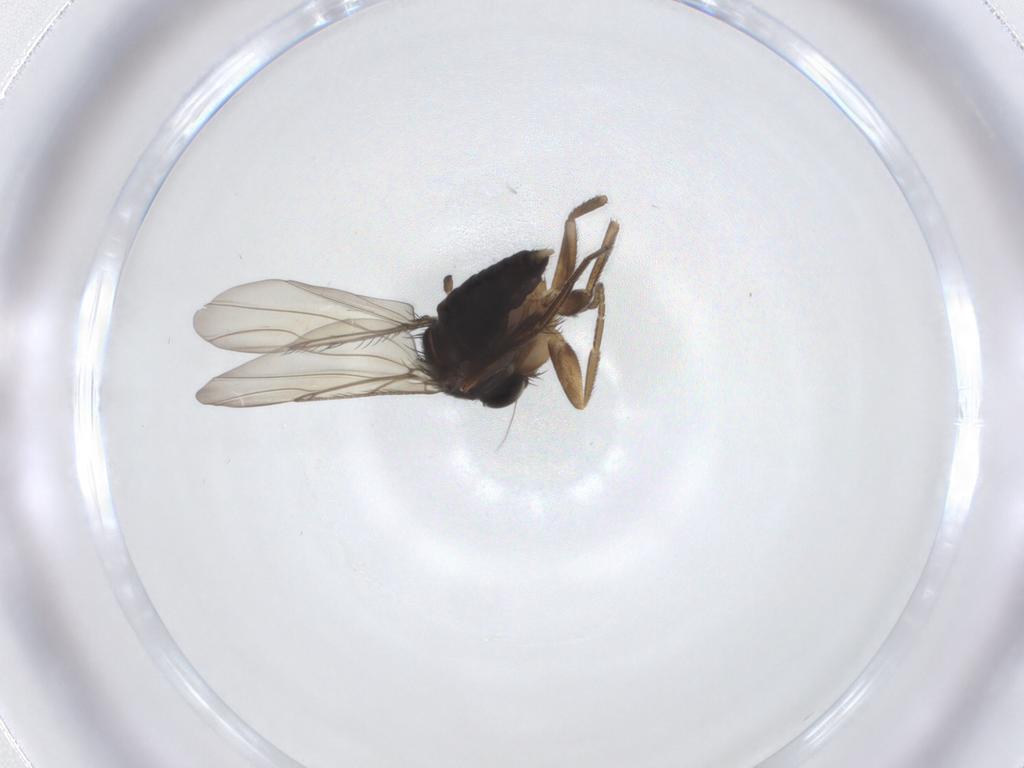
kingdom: Animalia
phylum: Arthropoda
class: Insecta
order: Diptera
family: Phoridae
